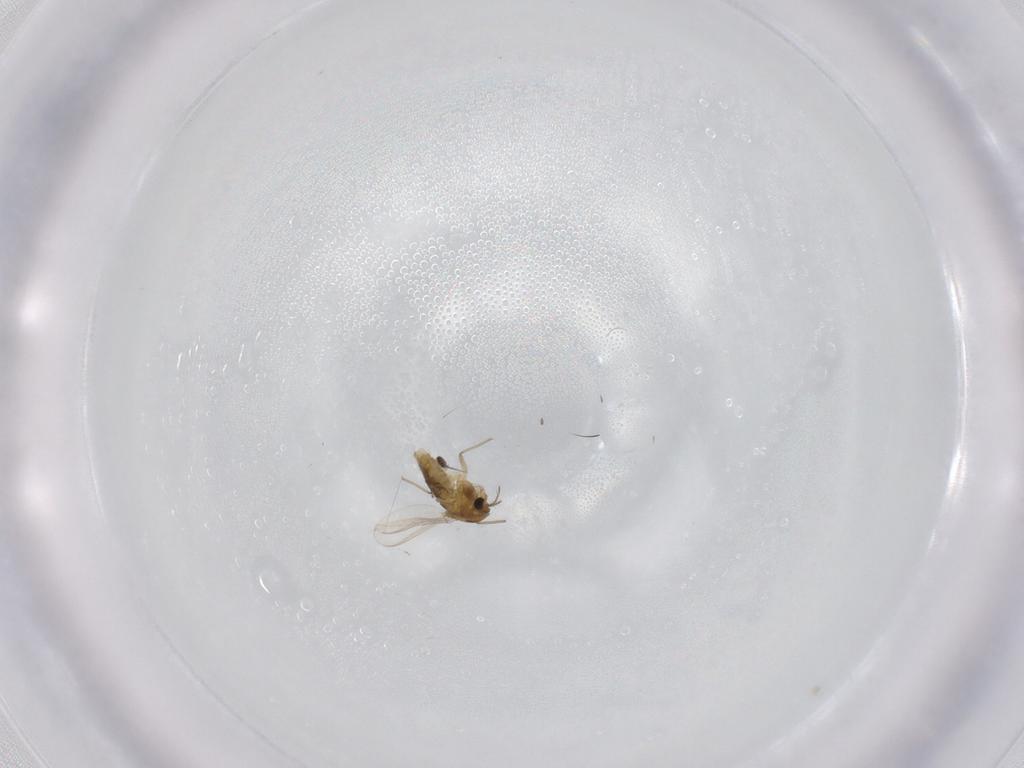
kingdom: Animalia
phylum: Arthropoda
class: Insecta
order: Diptera
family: Chironomidae
